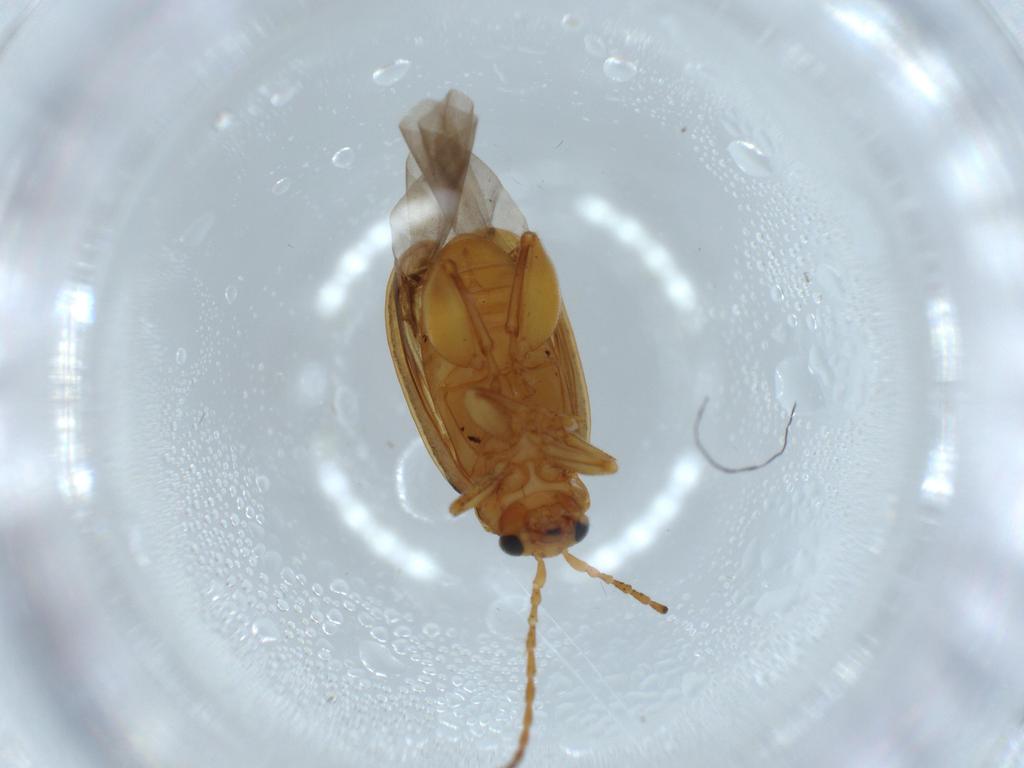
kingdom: Animalia
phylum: Arthropoda
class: Insecta
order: Coleoptera
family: Chrysomelidae
